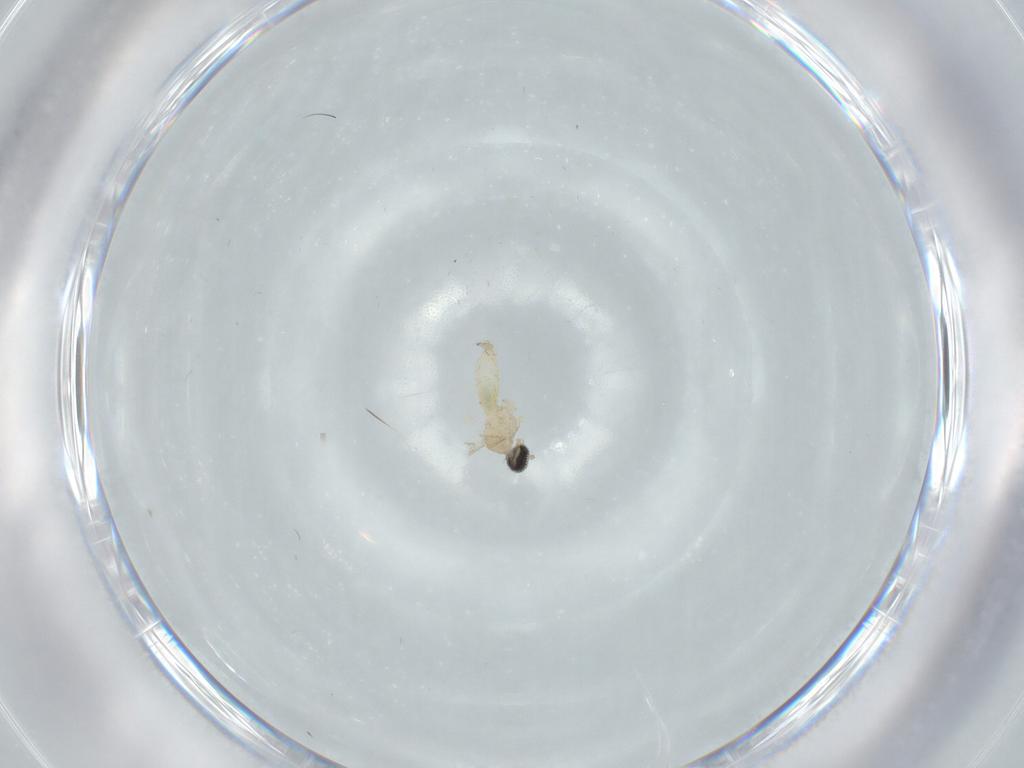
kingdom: Animalia
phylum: Arthropoda
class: Insecta
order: Diptera
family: Cecidomyiidae
